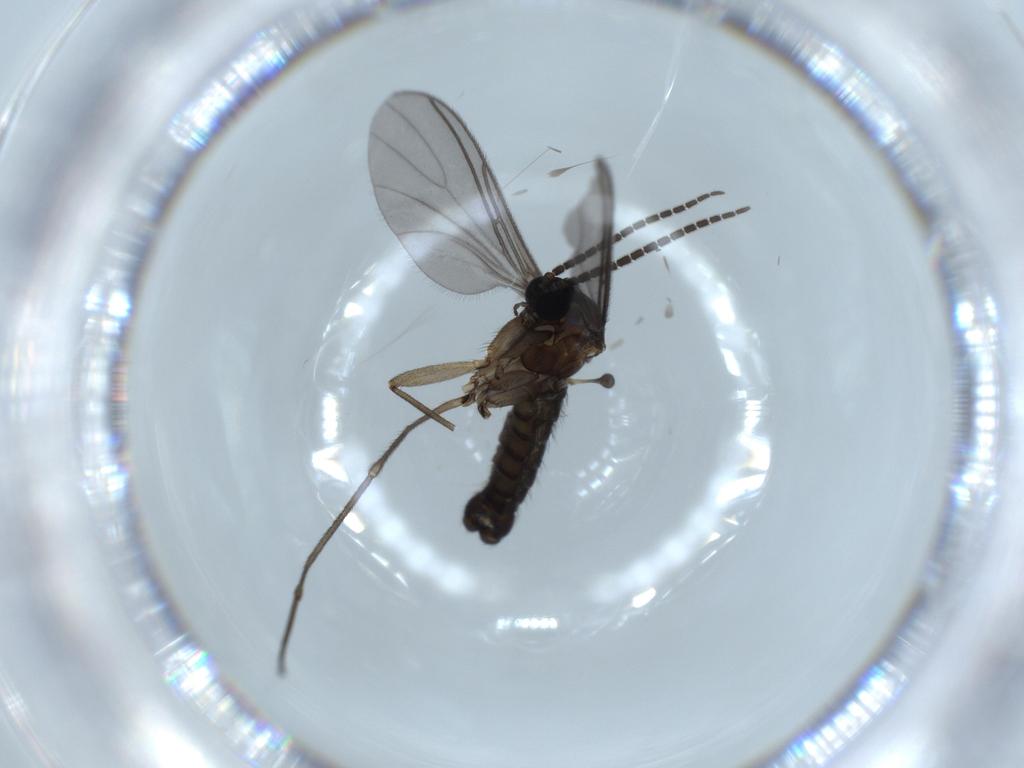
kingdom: Animalia
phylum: Arthropoda
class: Insecta
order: Diptera
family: Sciaridae
